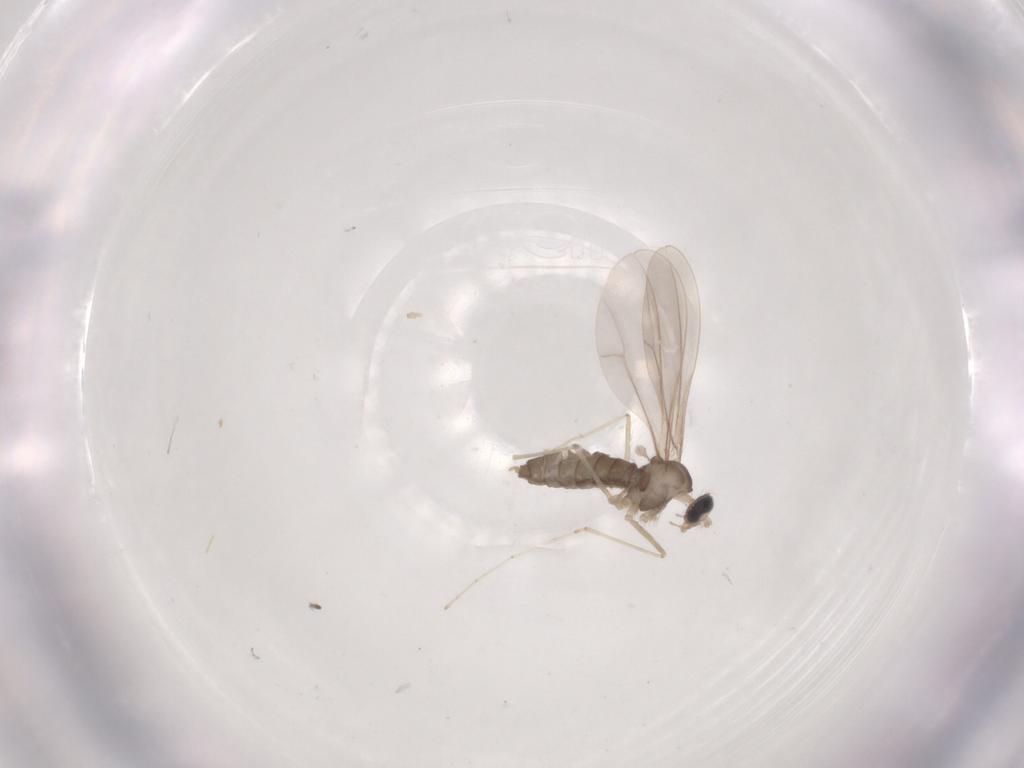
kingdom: Animalia
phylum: Arthropoda
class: Insecta
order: Diptera
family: Cecidomyiidae
